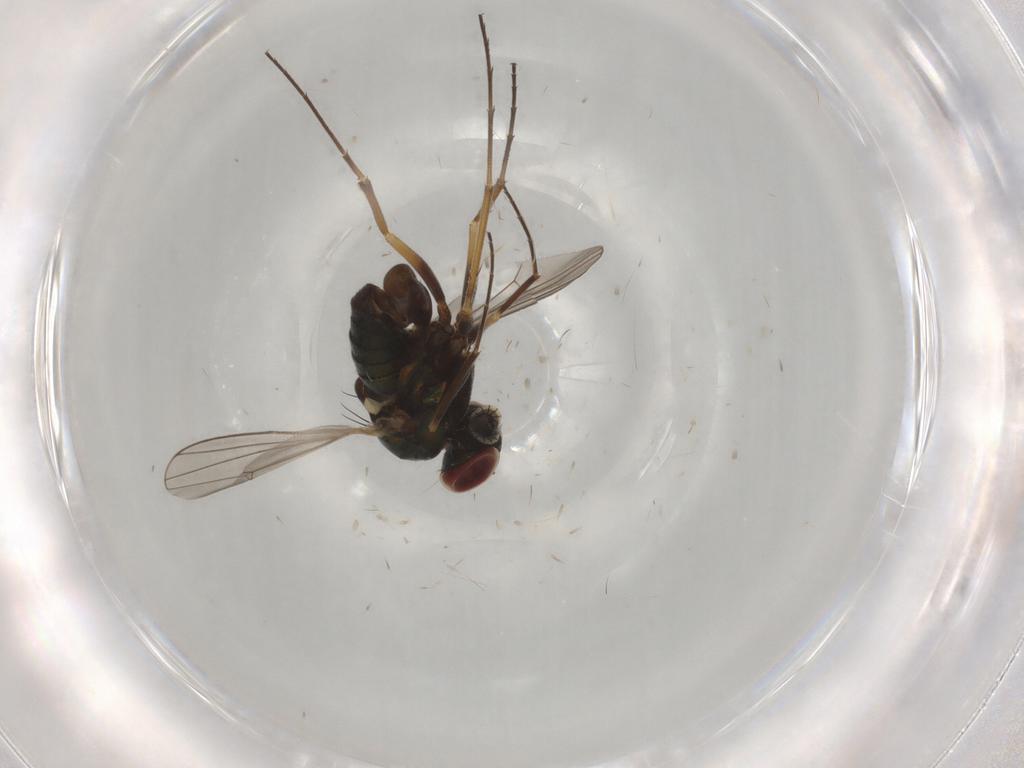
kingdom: Animalia
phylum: Arthropoda
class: Insecta
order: Diptera
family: Dolichopodidae
